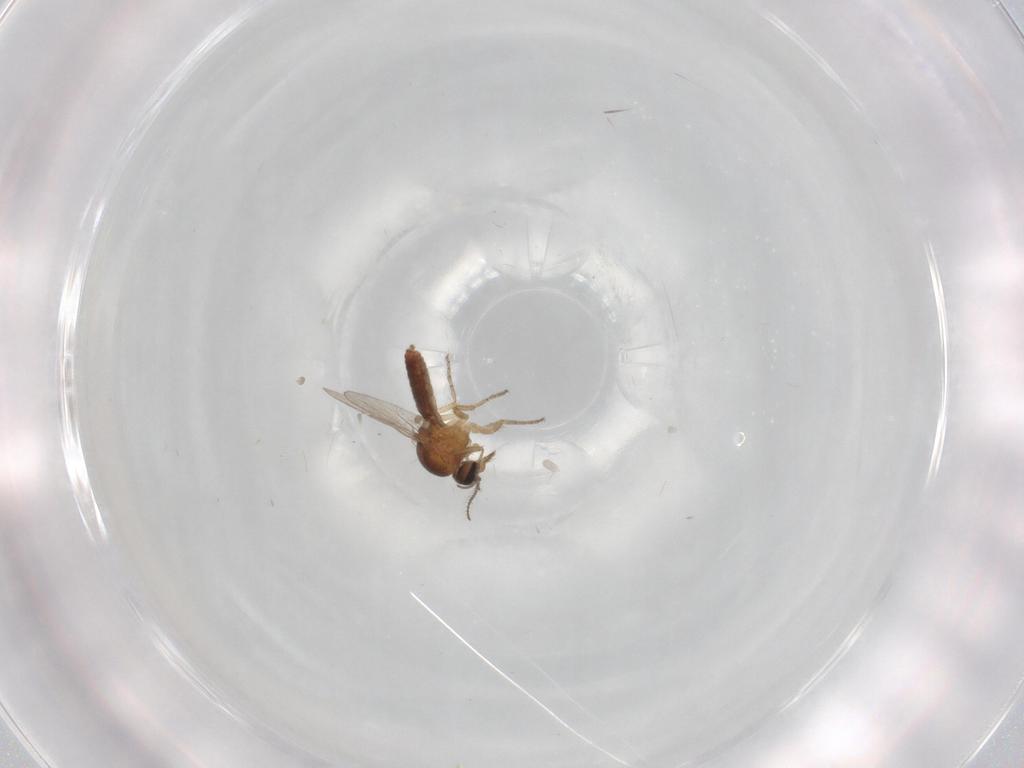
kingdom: Animalia
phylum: Arthropoda
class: Insecta
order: Diptera
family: Ceratopogonidae
